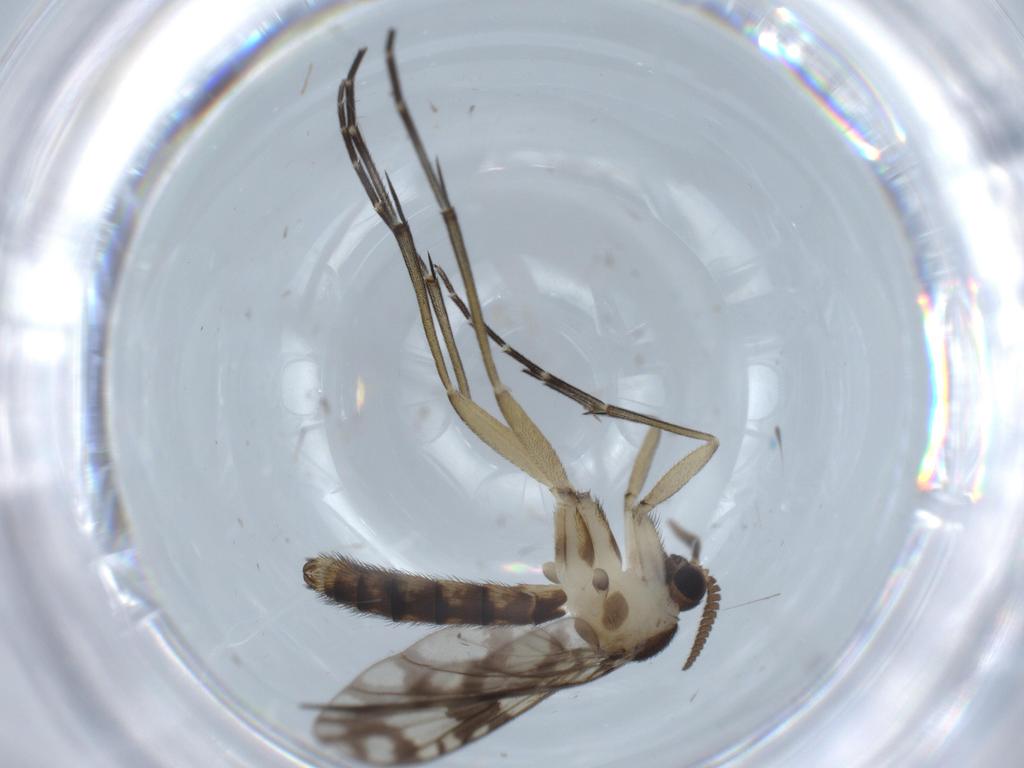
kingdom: Animalia
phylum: Arthropoda
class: Insecta
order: Diptera
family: Keroplatidae
